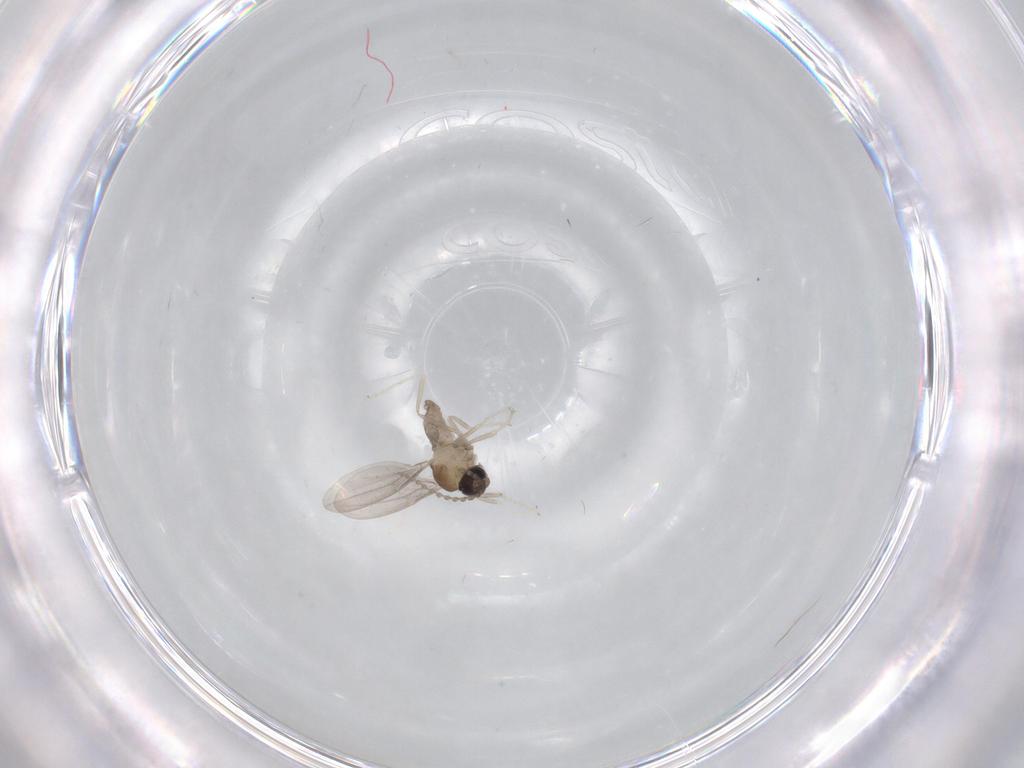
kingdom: Animalia
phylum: Arthropoda
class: Insecta
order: Diptera
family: Cecidomyiidae
